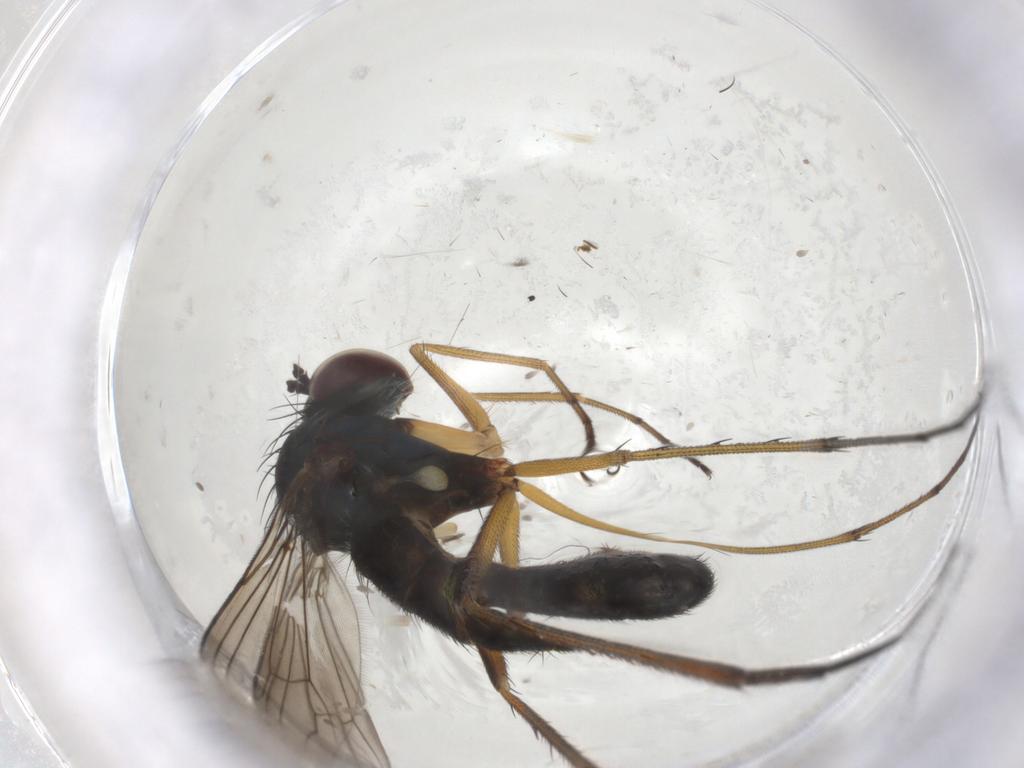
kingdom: Animalia
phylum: Arthropoda
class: Insecta
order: Diptera
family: Dolichopodidae
